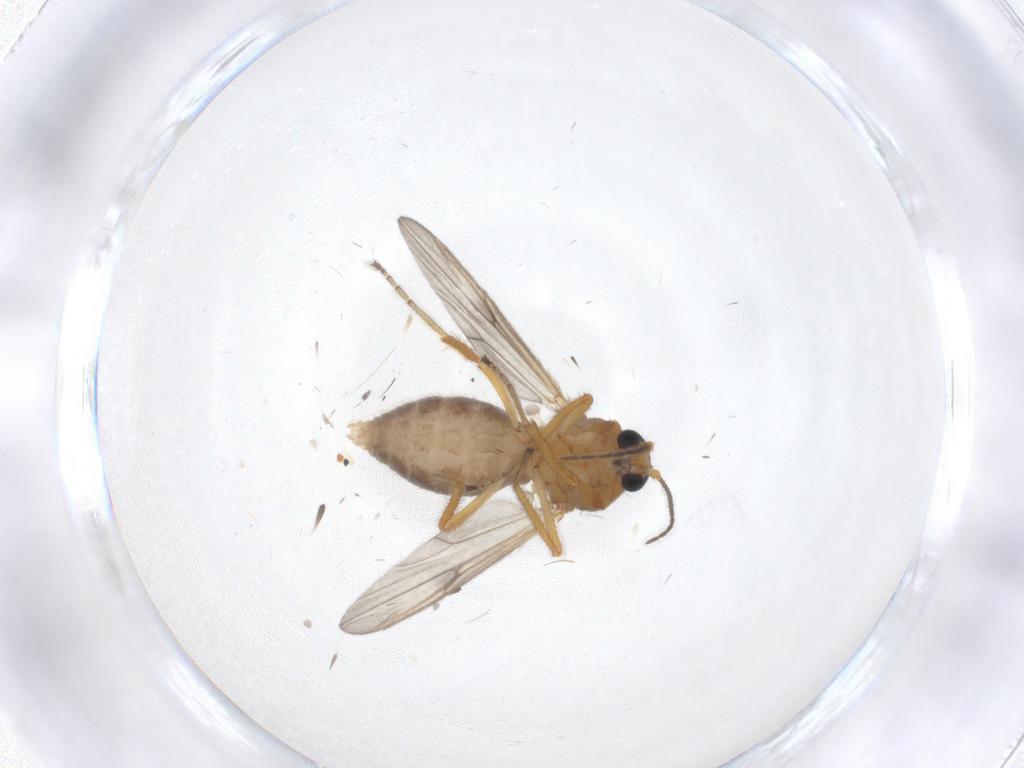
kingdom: Animalia
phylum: Arthropoda
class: Insecta
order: Diptera
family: Ceratopogonidae
